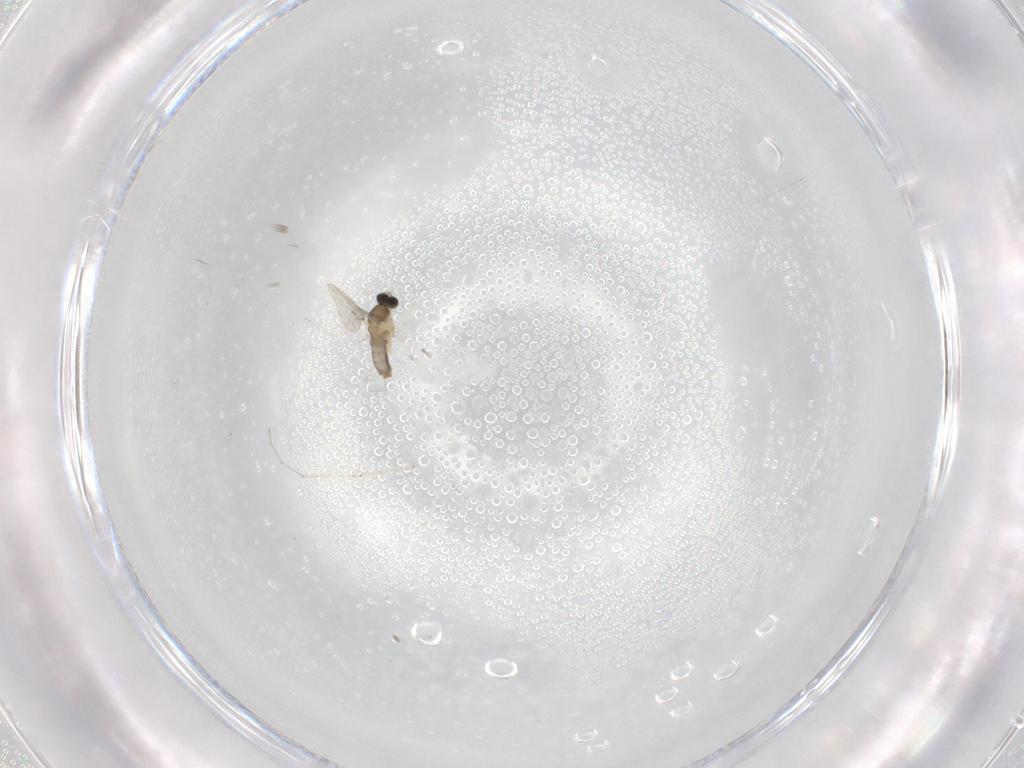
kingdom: Animalia
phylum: Arthropoda
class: Insecta
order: Diptera
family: Cecidomyiidae
